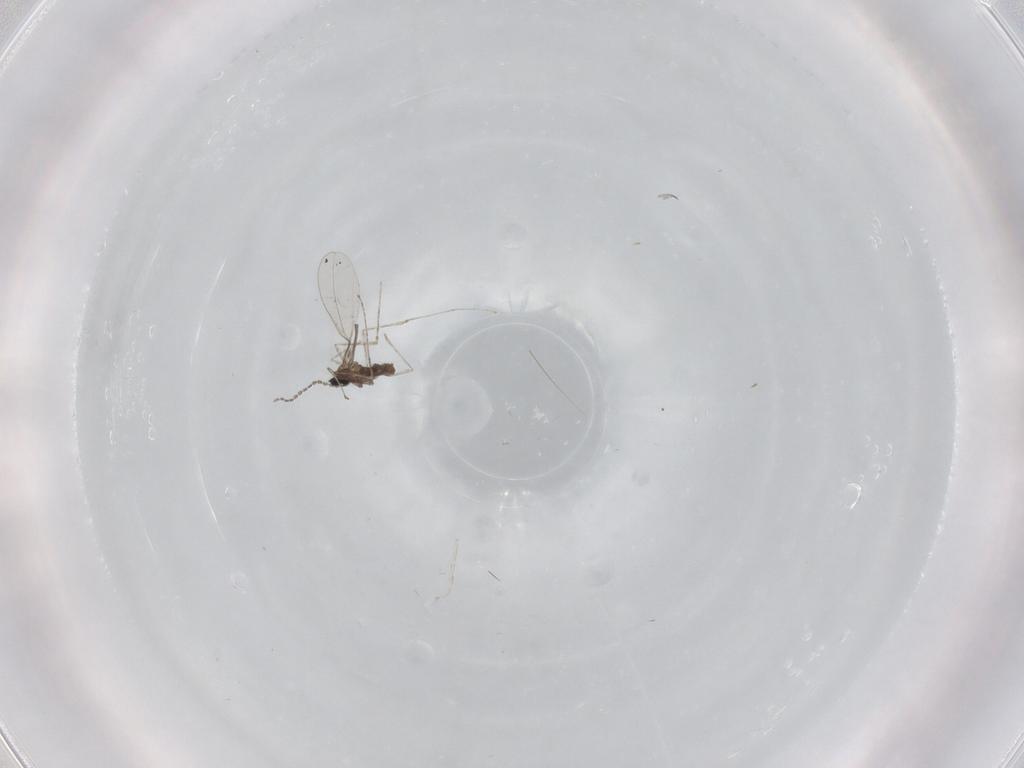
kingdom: Animalia
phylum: Arthropoda
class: Insecta
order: Diptera
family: Cecidomyiidae
